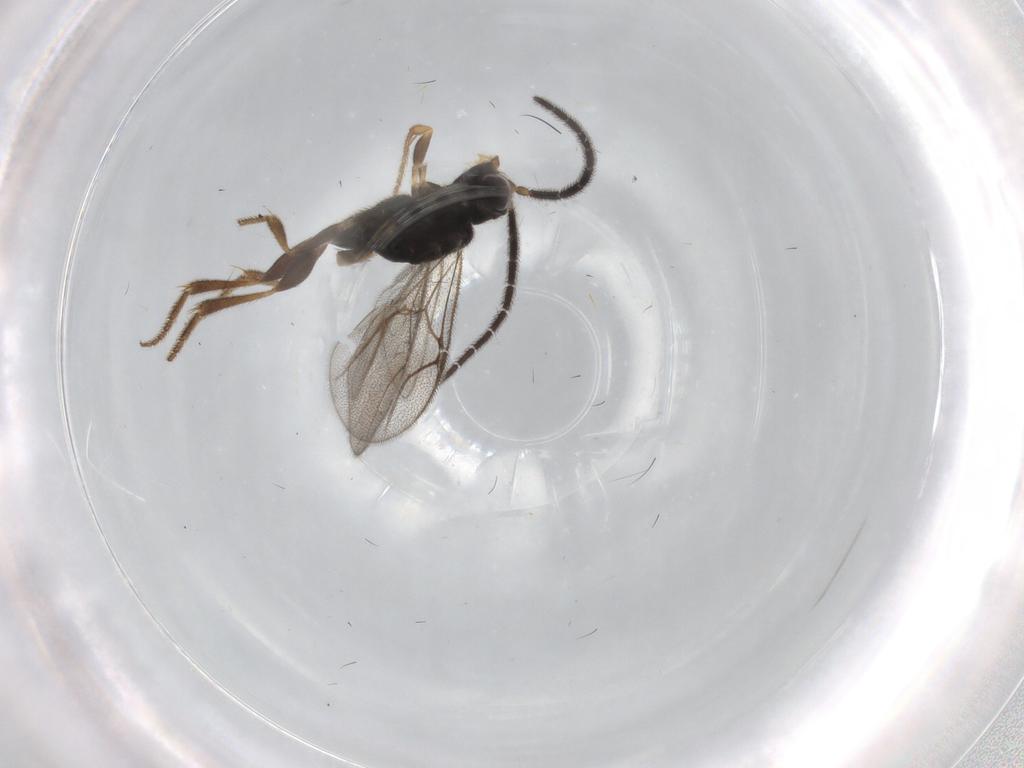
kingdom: Animalia
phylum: Arthropoda
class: Insecta
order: Hymenoptera
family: Dryinidae
